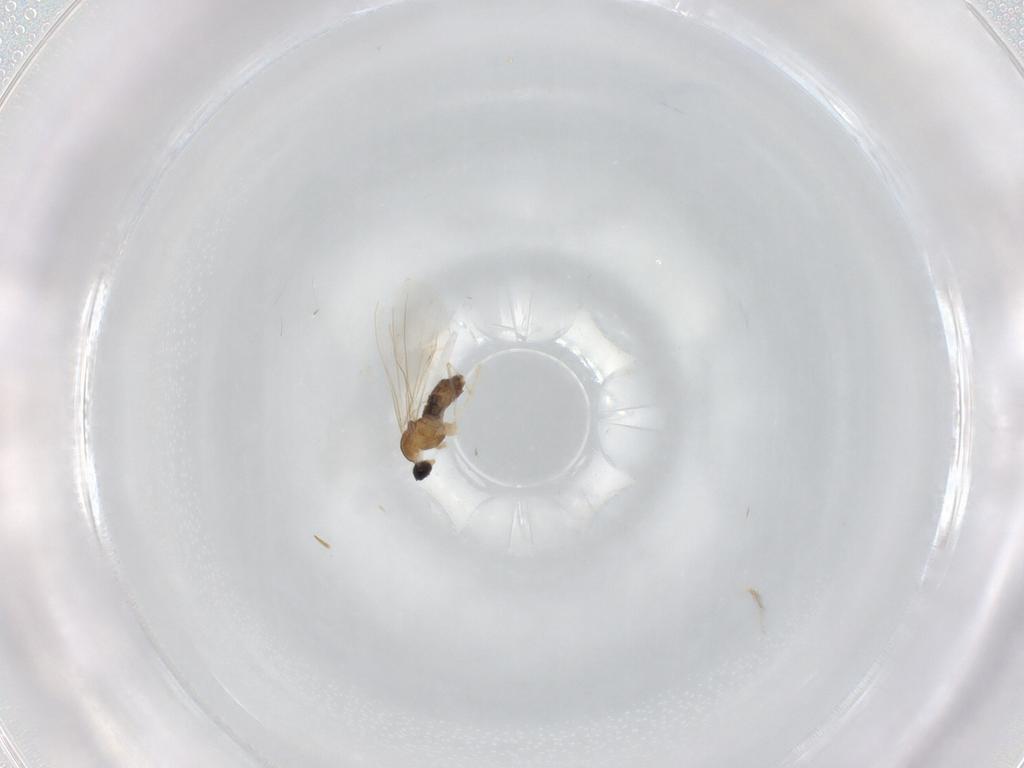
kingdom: Animalia
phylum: Arthropoda
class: Insecta
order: Diptera
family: Cecidomyiidae
